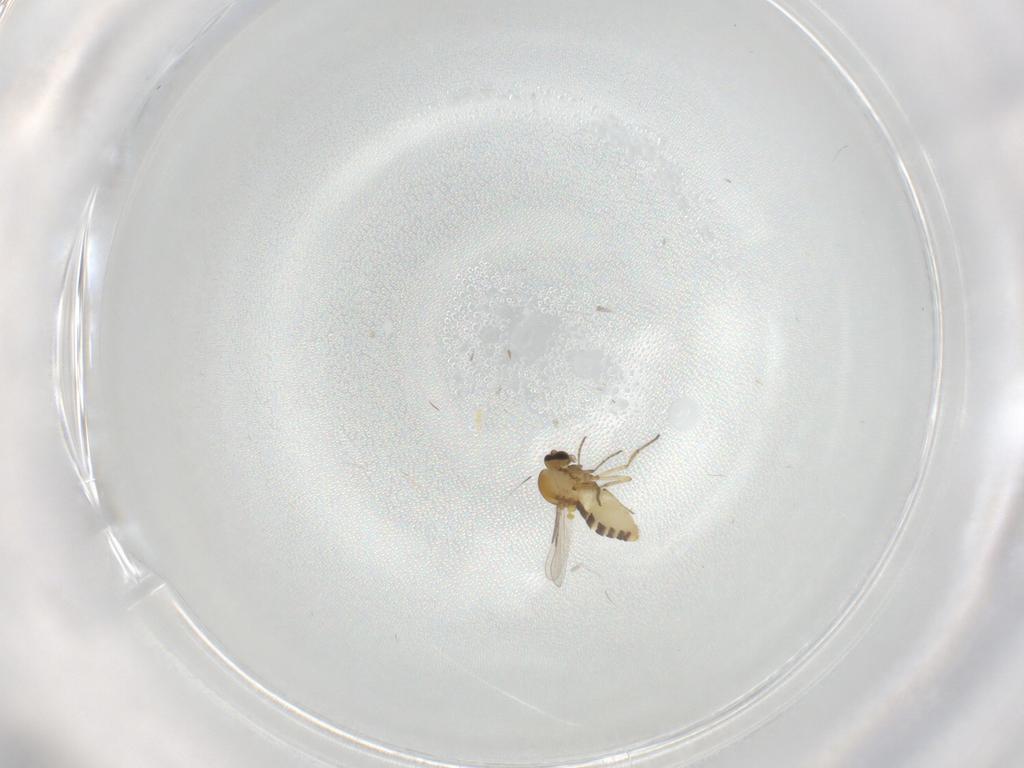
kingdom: Animalia
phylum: Arthropoda
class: Insecta
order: Diptera
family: Ceratopogonidae
